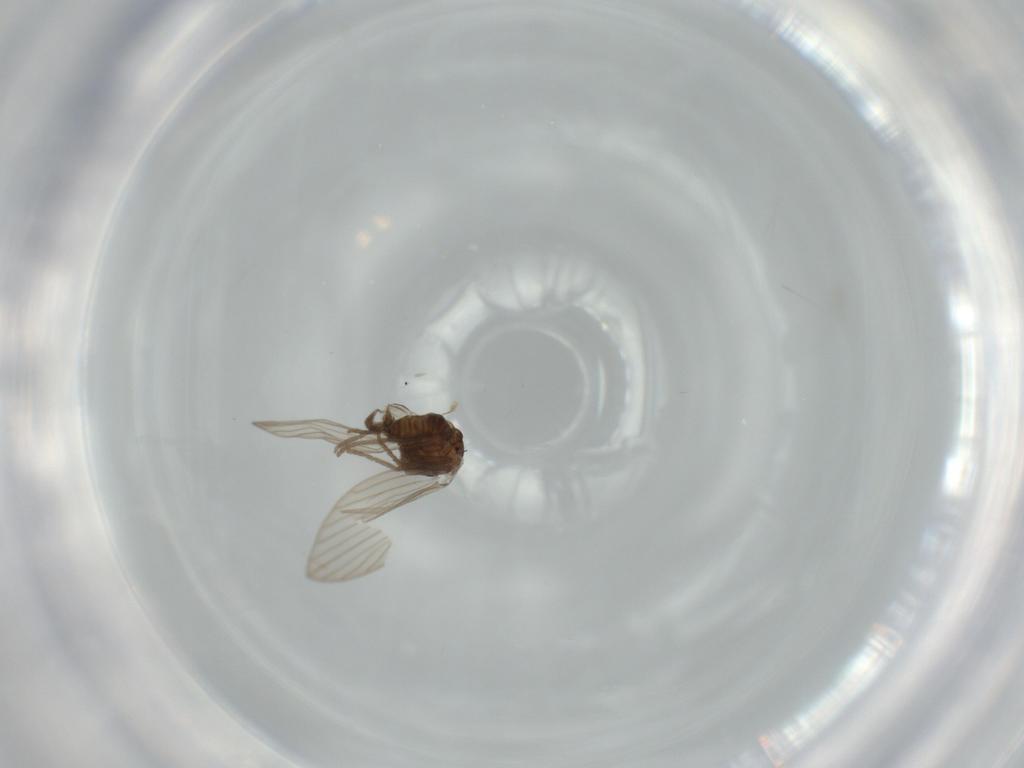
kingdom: Animalia
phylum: Arthropoda
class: Insecta
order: Diptera
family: Psychodidae
